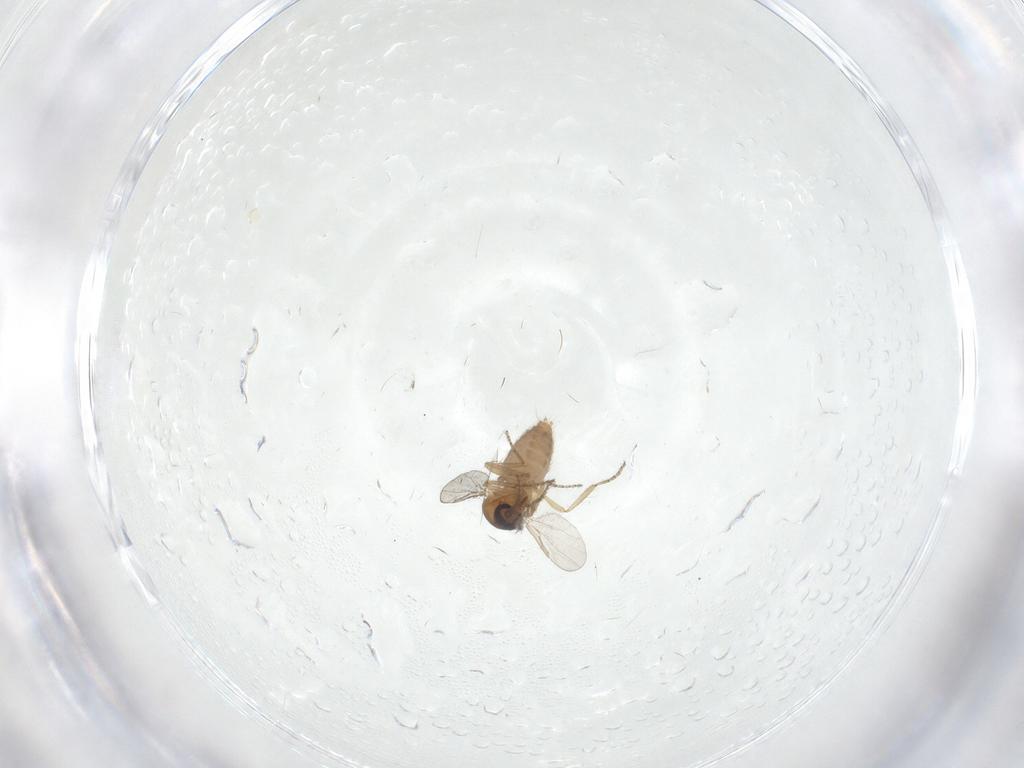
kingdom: Animalia
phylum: Arthropoda
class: Insecta
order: Diptera
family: Ceratopogonidae
